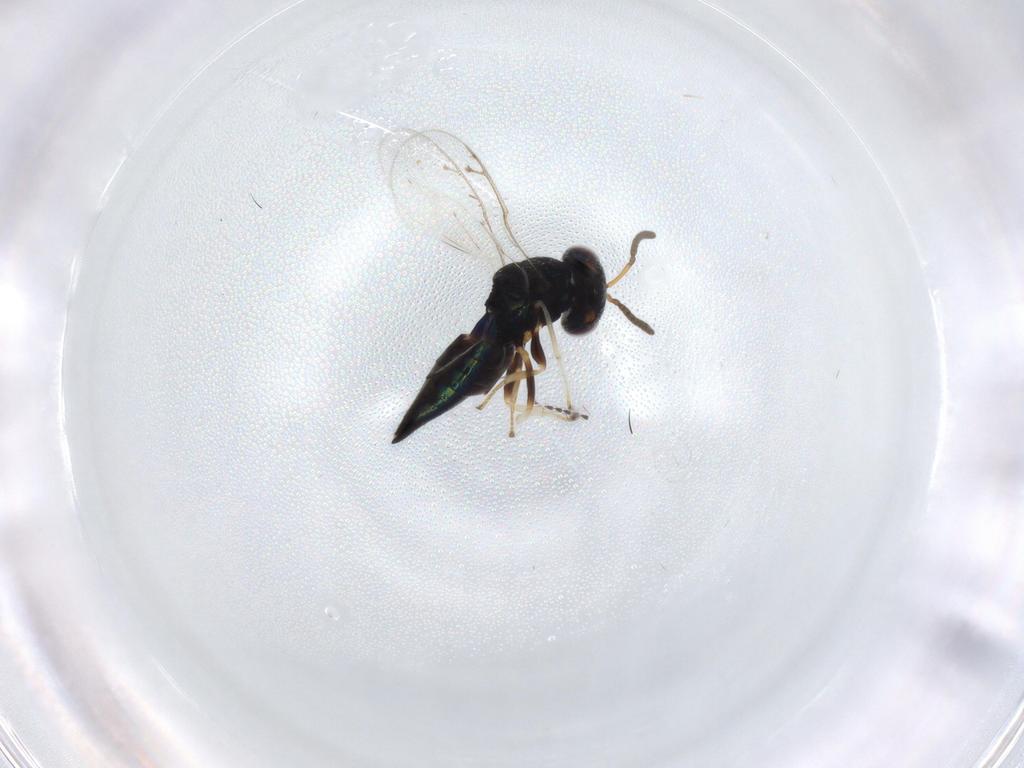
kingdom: Animalia
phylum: Arthropoda
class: Insecta
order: Hymenoptera
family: Pteromalidae
